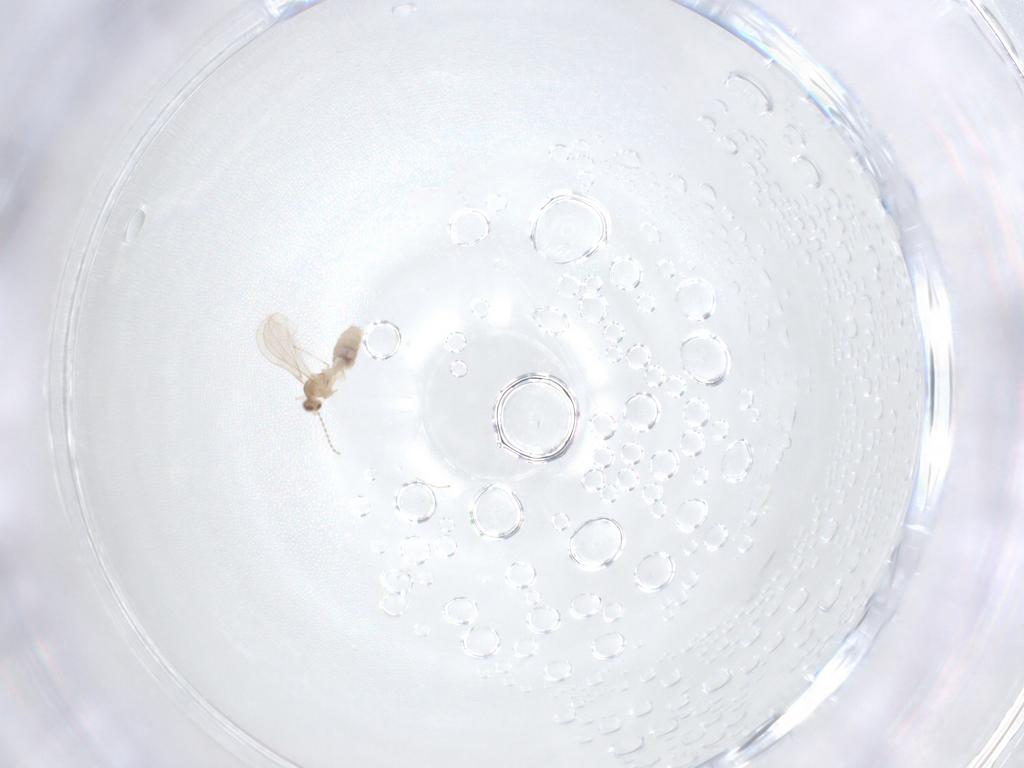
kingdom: Animalia
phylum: Arthropoda
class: Insecta
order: Diptera
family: Cecidomyiidae
